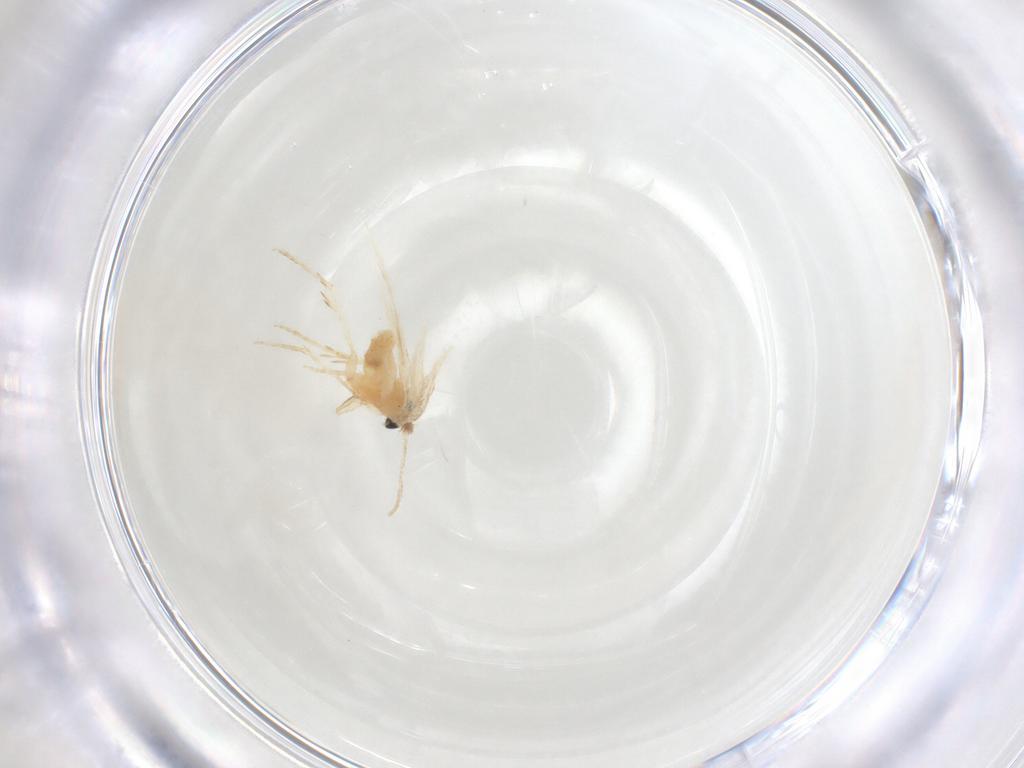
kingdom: Animalia
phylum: Arthropoda
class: Insecta
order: Lepidoptera
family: Nepticulidae
